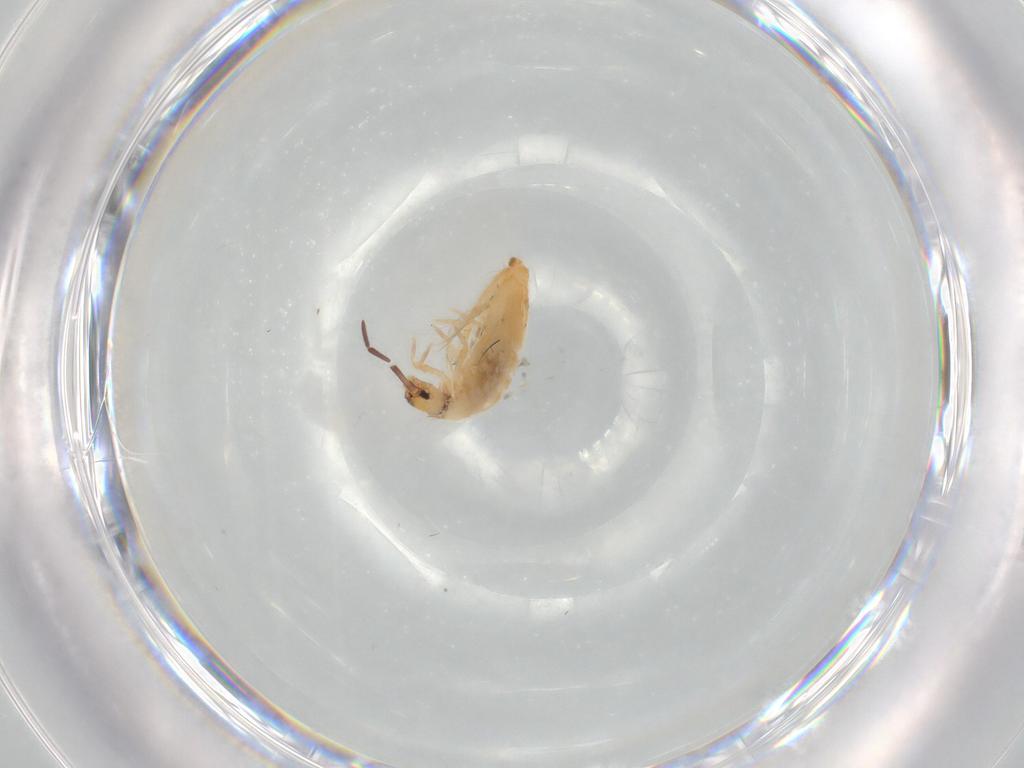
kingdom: Animalia
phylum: Arthropoda
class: Collembola
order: Entomobryomorpha
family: Entomobryidae
